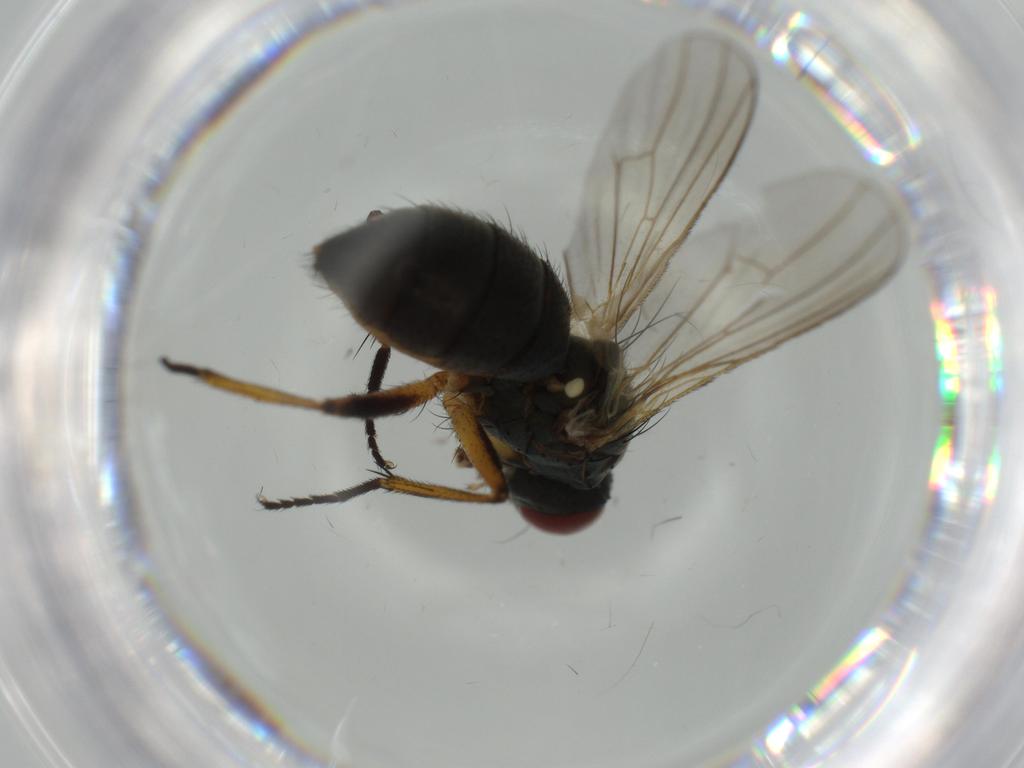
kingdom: Animalia
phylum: Arthropoda
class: Insecta
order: Diptera
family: Muscidae
